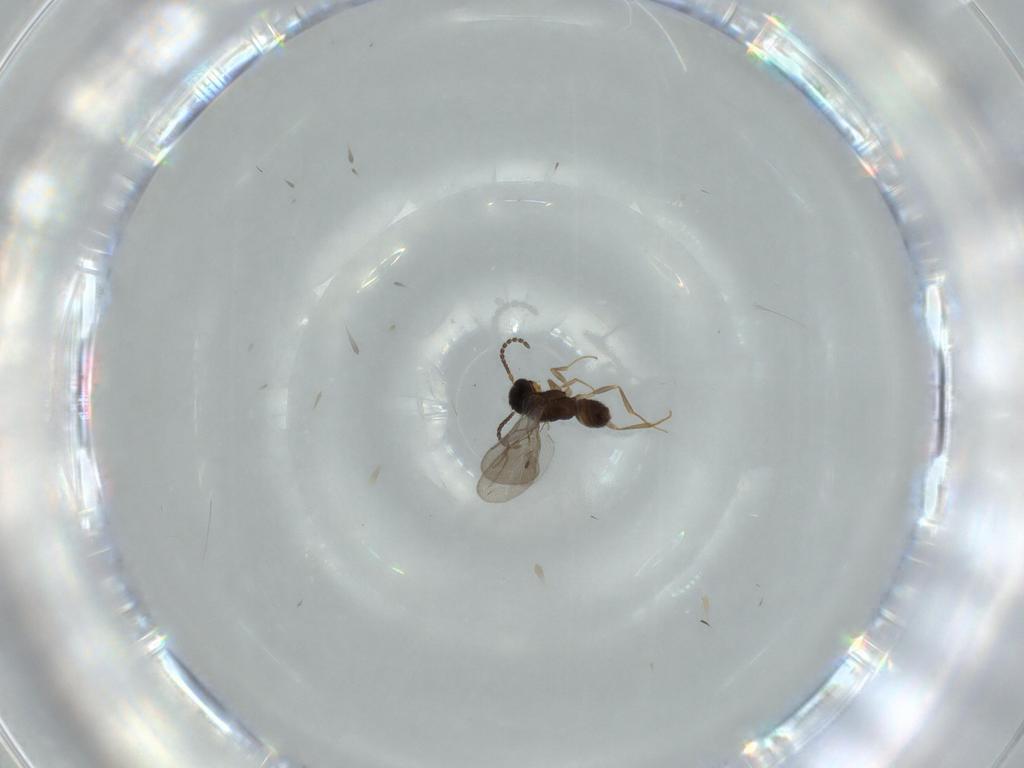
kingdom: Animalia
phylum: Arthropoda
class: Insecta
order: Hymenoptera
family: Bethylidae
